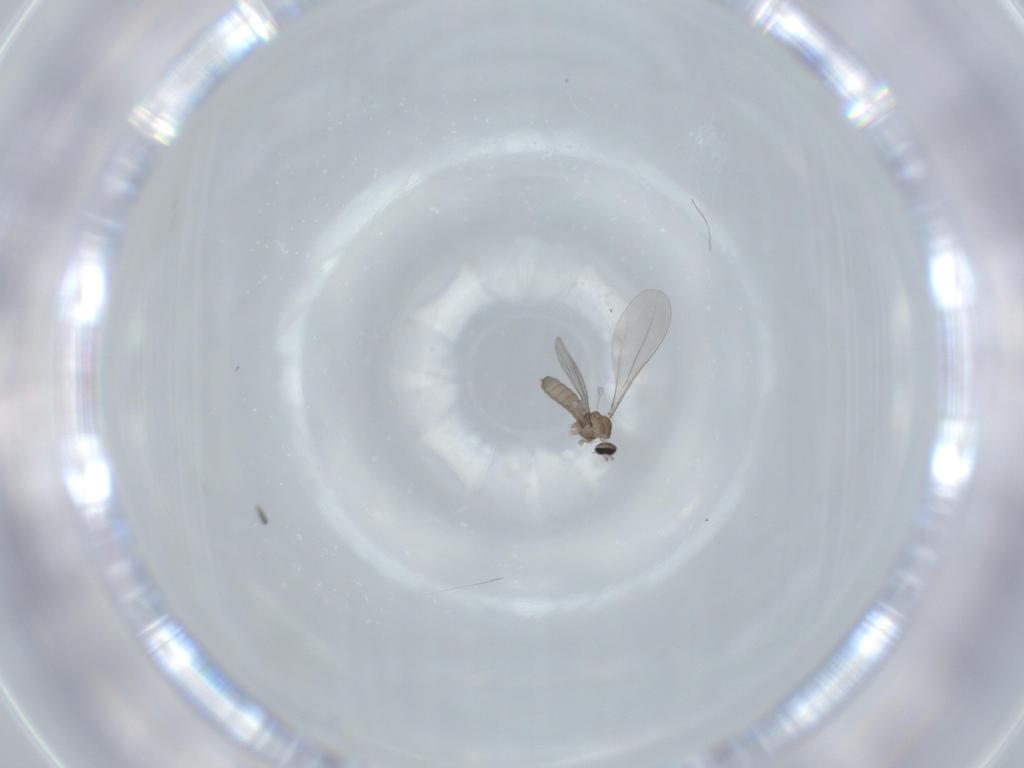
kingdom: Animalia
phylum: Arthropoda
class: Insecta
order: Diptera
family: Cecidomyiidae
